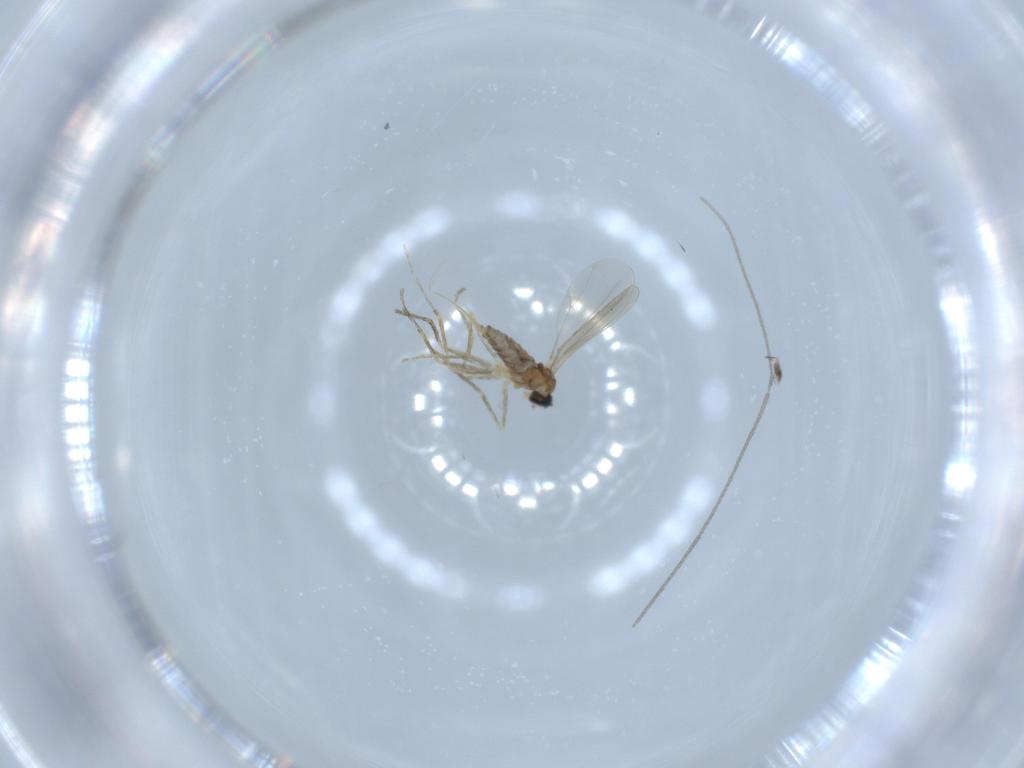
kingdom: Animalia
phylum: Arthropoda
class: Insecta
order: Diptera
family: Cecidomyiidae
